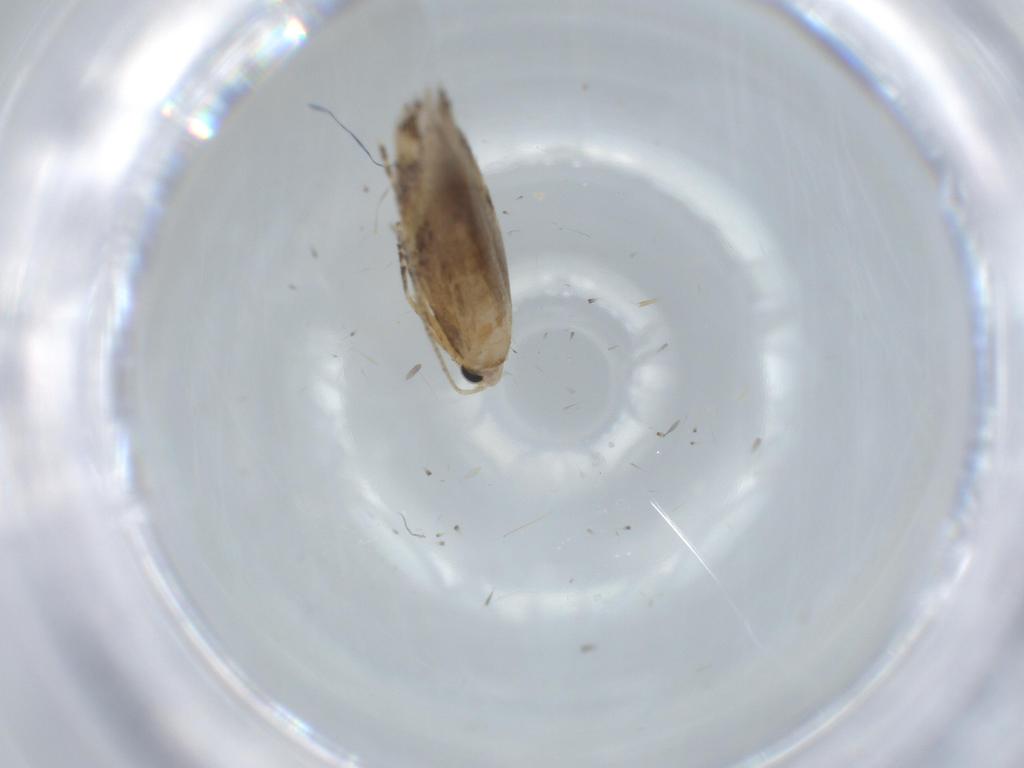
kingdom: Animalia
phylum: Arthropoda
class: Insecta
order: Lepidoptera
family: Bucculatricidae
